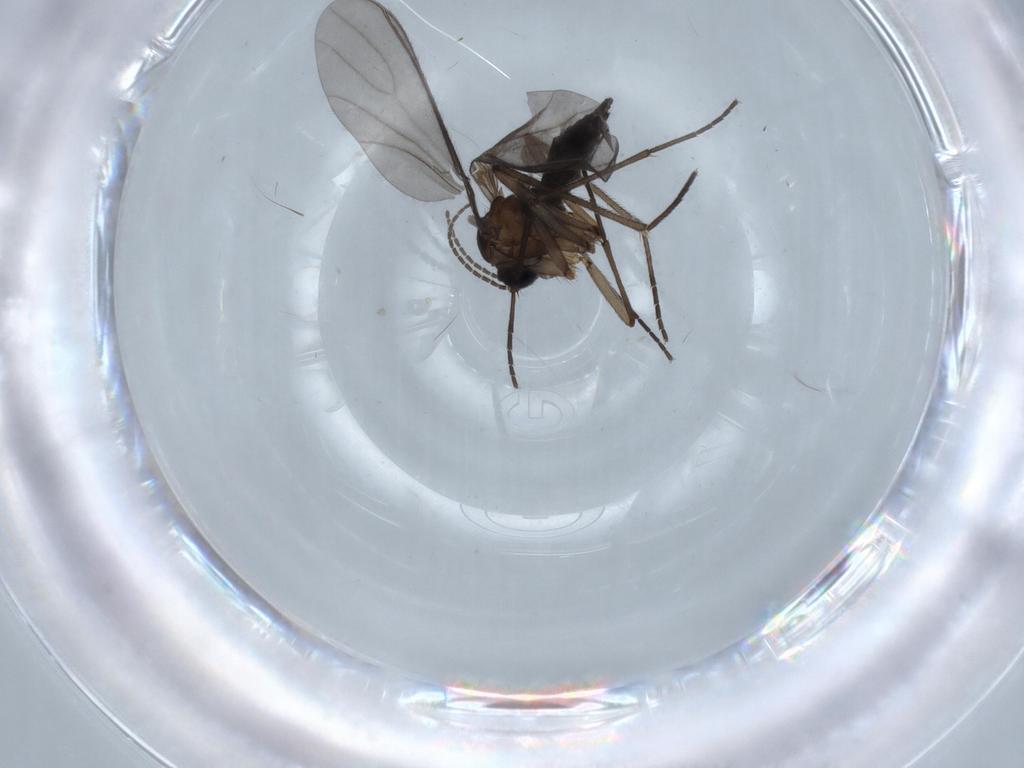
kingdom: Animalia
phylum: Arthropoda
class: Insecta
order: Diptera
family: Sciaridae
